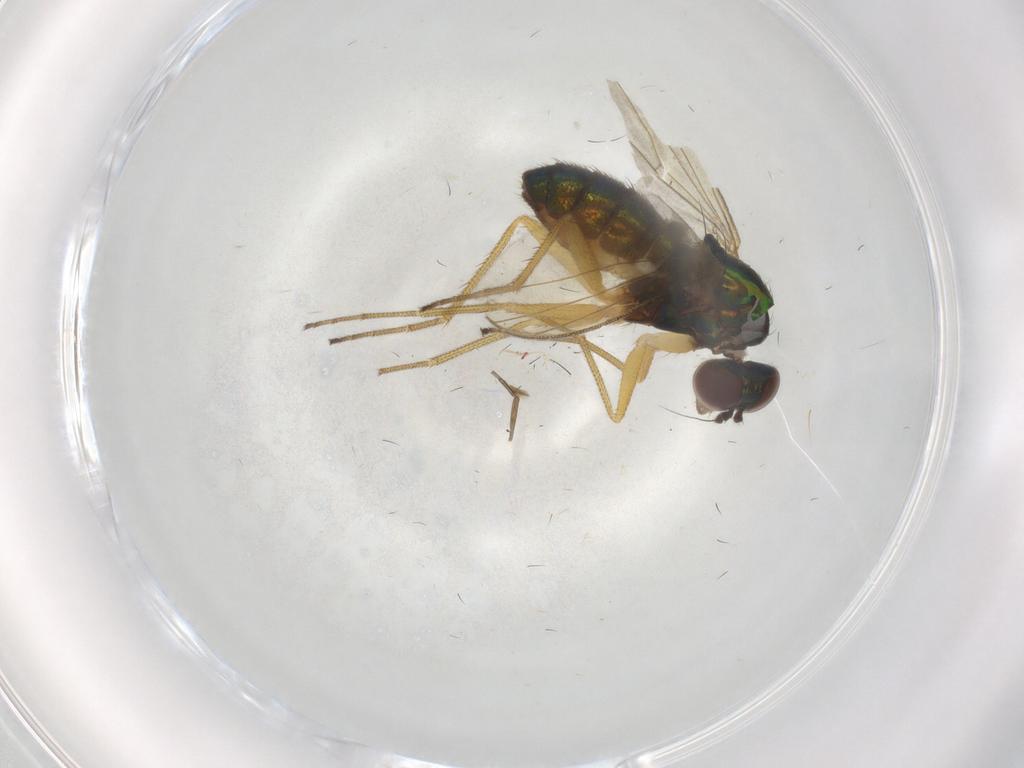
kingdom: Animalia
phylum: Arthropoda
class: Insecta
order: Diptera
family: Dolichopodidae
